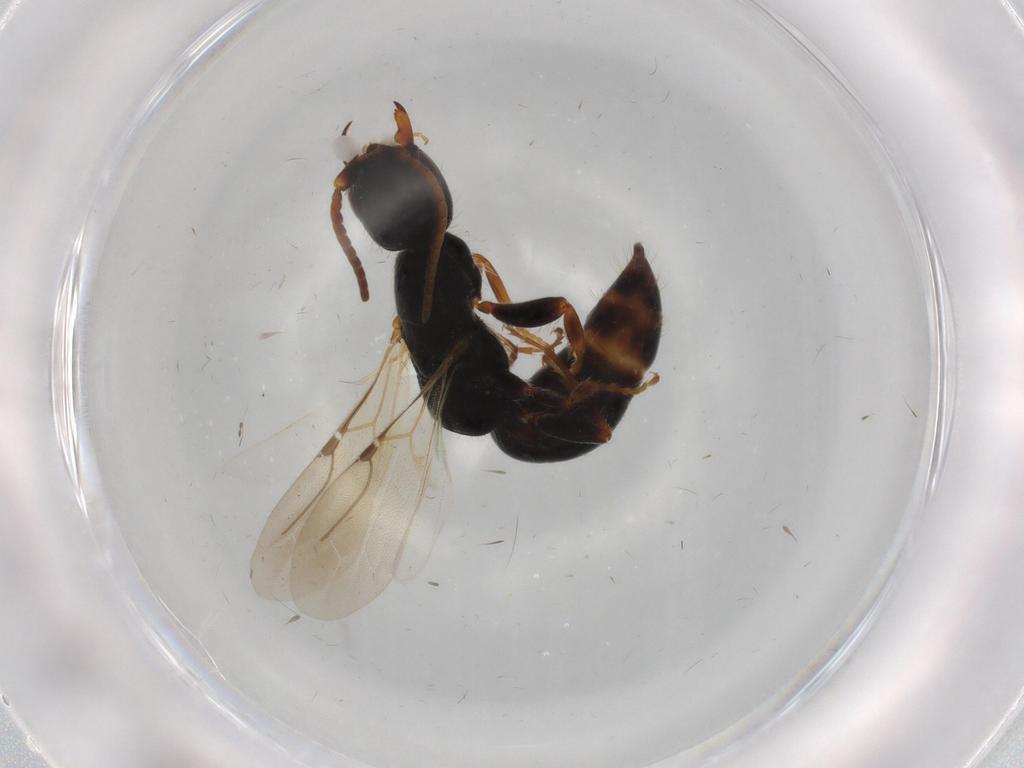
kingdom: Animalia
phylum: Arthropoda
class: Insecta
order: Hymenoptera
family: Bethylidae
